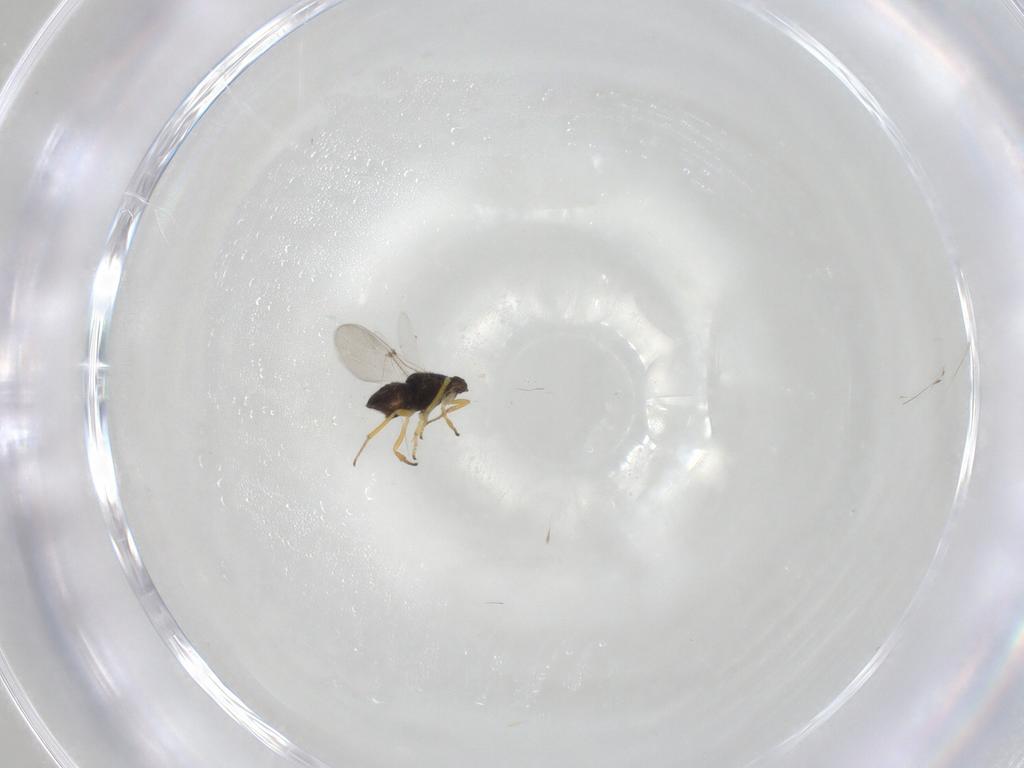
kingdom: Animalia
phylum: Arthropoda
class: Insecta
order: Hymenoptera
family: Encyrtidae
